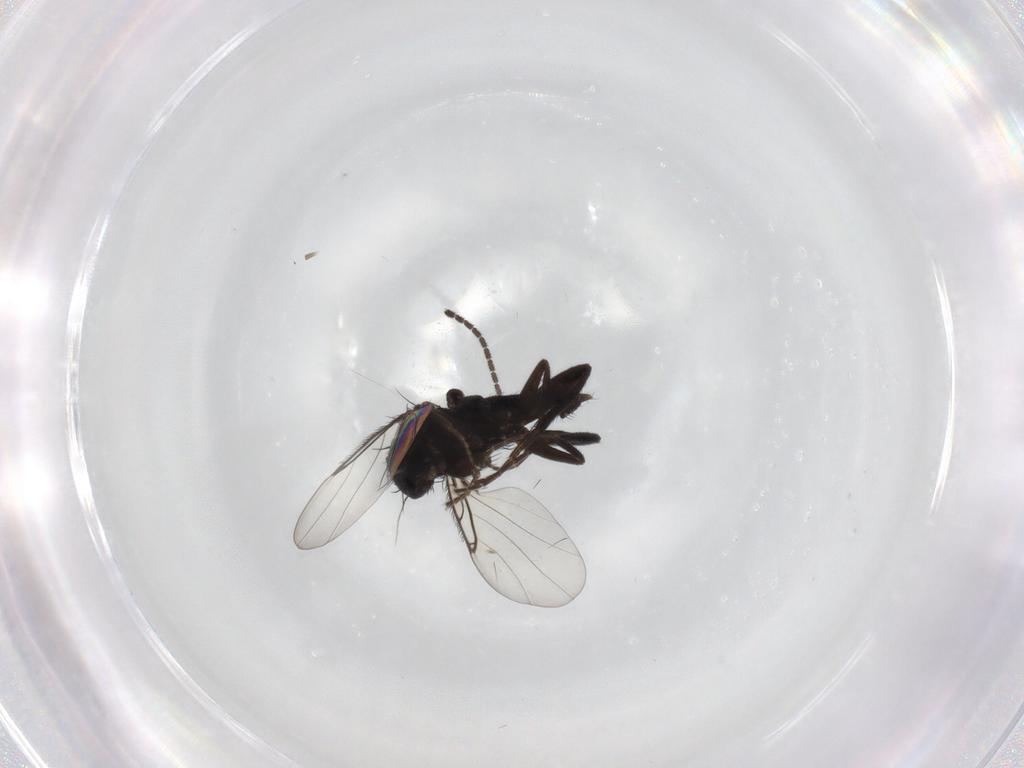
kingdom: Animalia
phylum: Arthropoda
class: Insecta
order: Diptera
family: Phoridae
